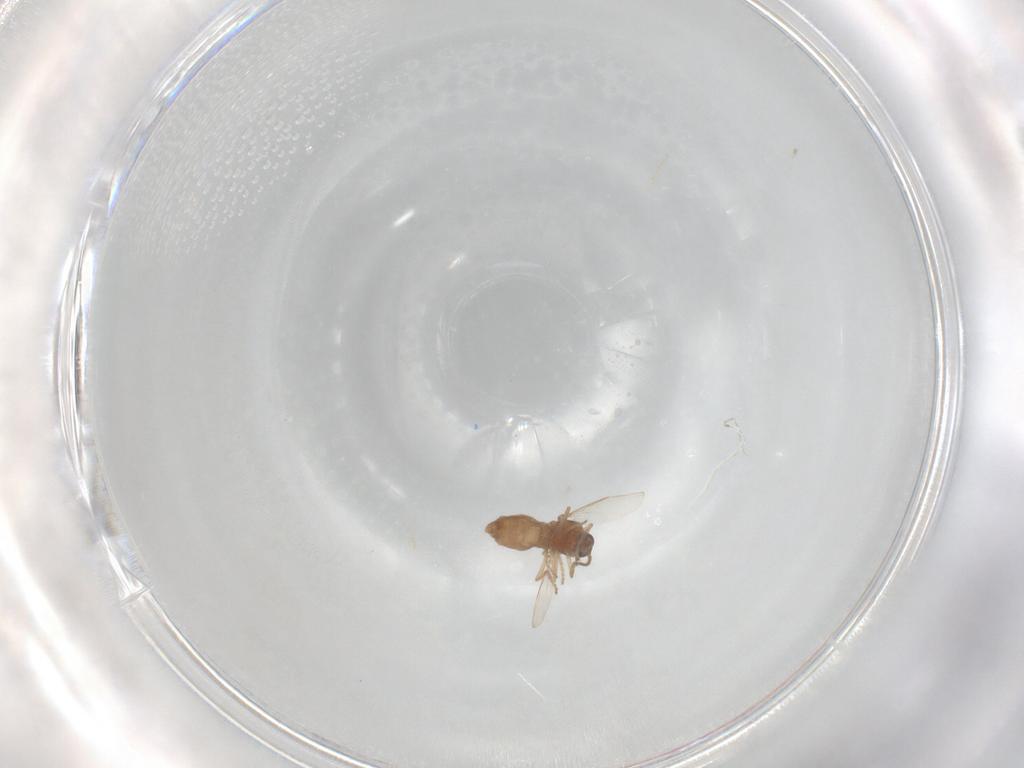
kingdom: Animalia
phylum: Arthropoda
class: Insecta
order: Diptera
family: Ceratopogonidae
